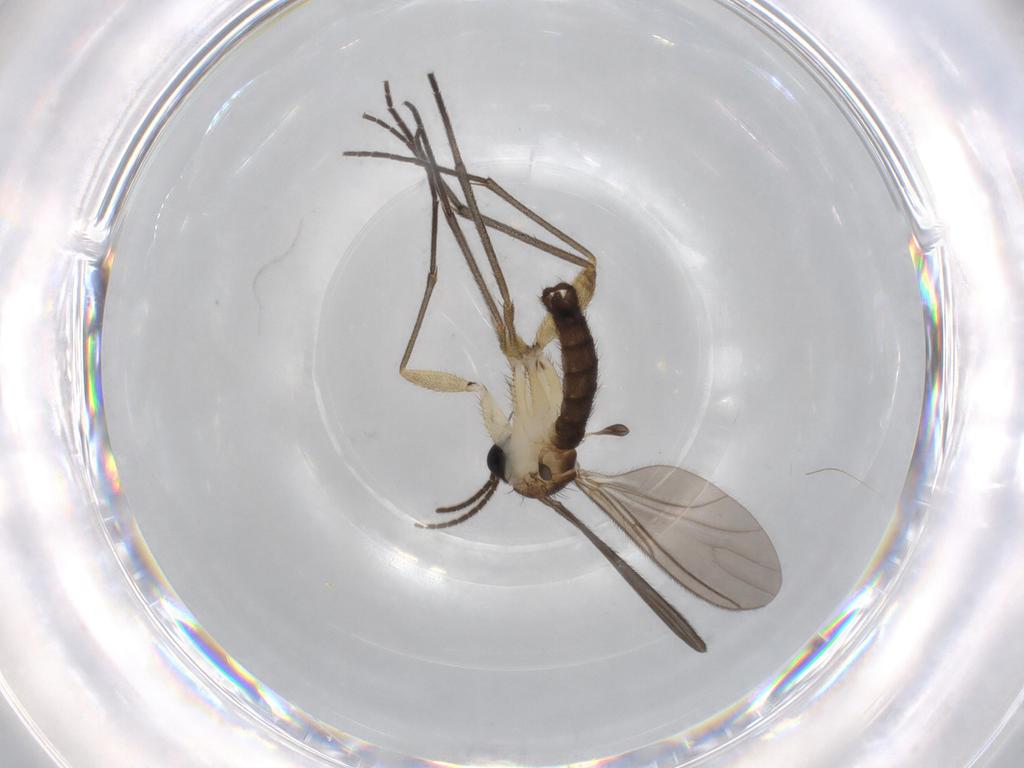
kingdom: Animalia
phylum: Arthropoda
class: Insecta
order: Diptera
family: Sciaridae
